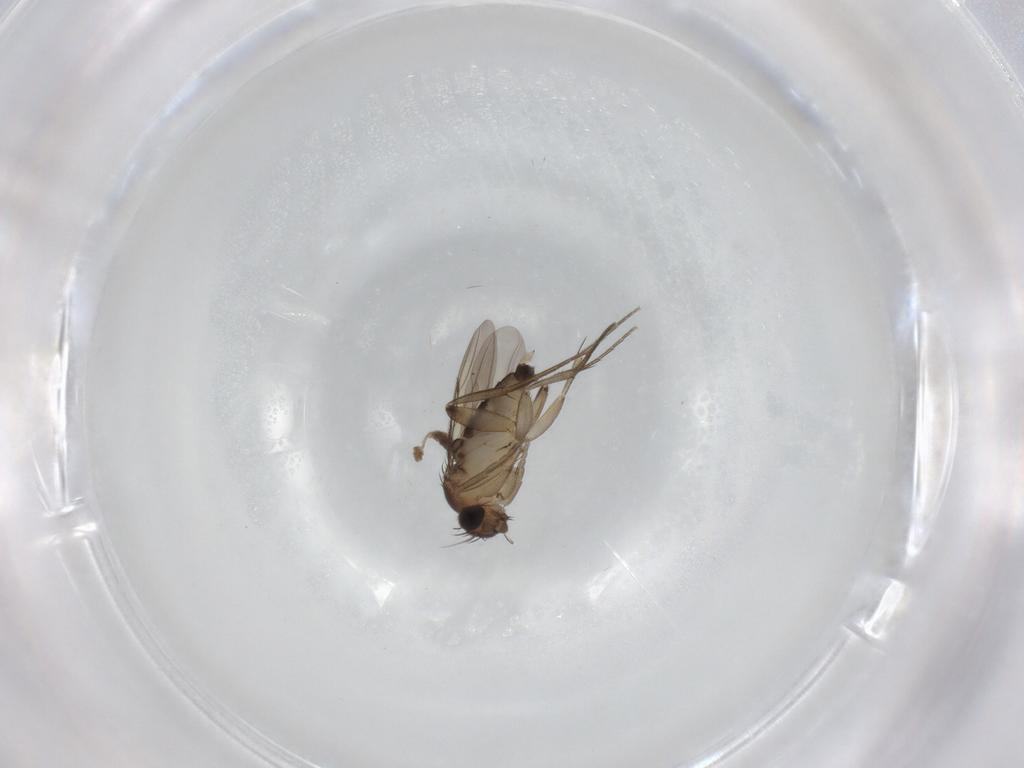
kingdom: Animalia
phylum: Arthropoda
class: Insecta
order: Diptera
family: Phoridae
